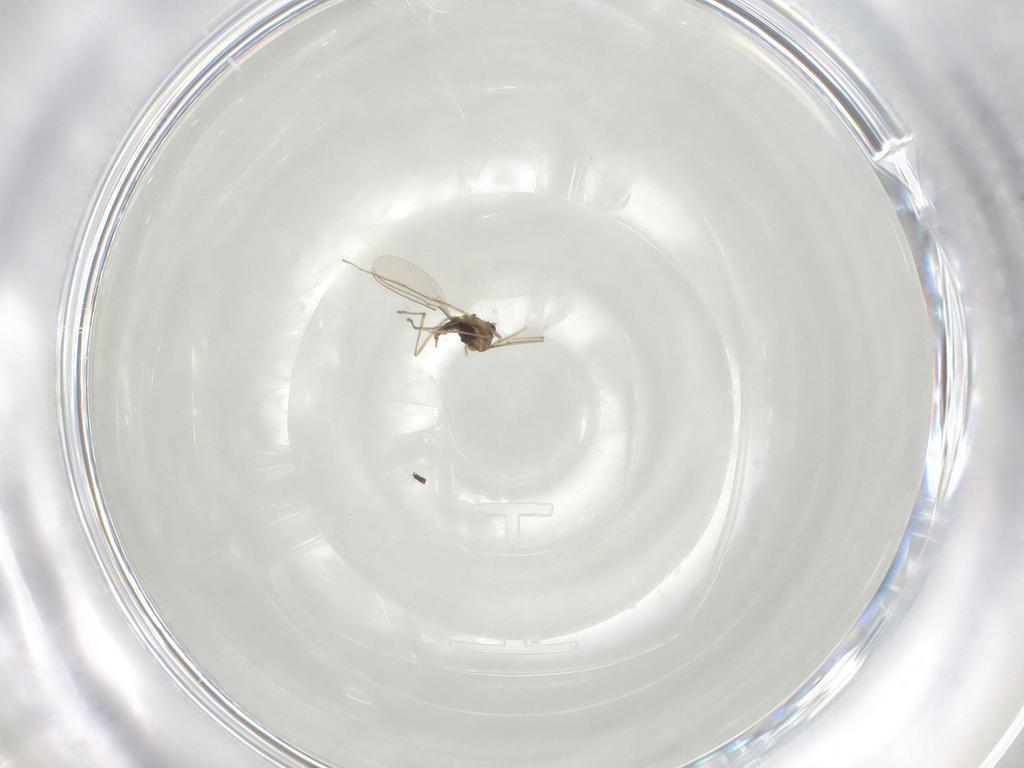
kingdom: Animalia
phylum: Arthropoda
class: Insecta
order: Diptera
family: Sciaridae
